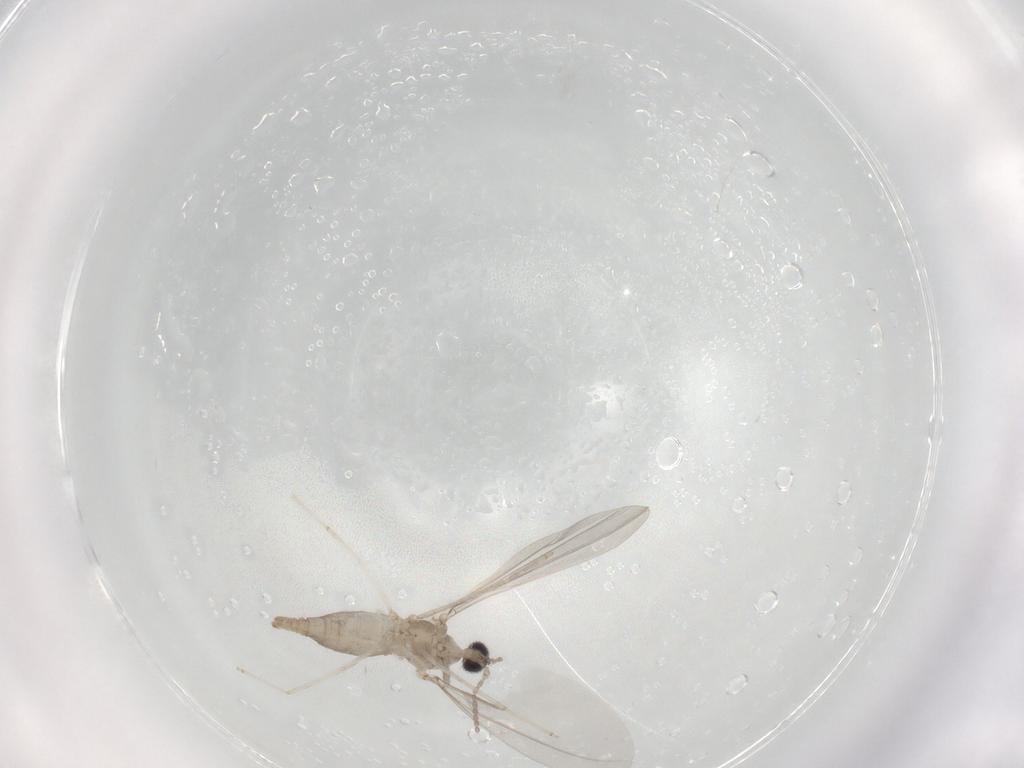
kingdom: Animalia
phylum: Arthropoda
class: Insecta
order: Diptera
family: Cecidomyiidae
